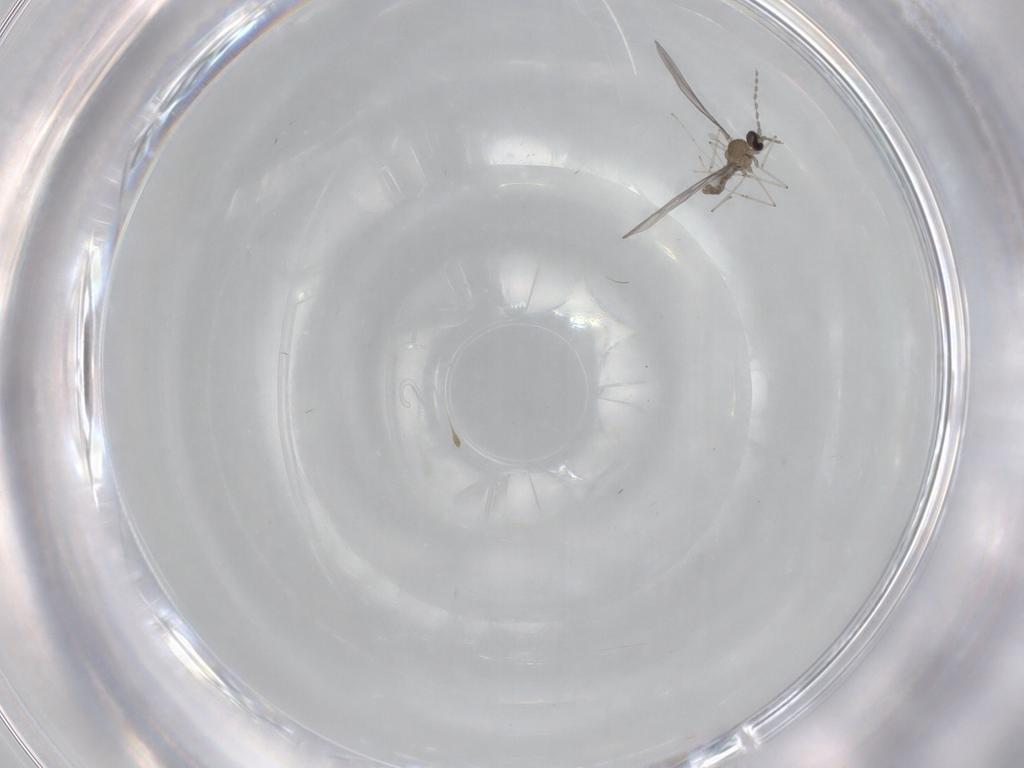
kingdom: Animalia
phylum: Arthropoda
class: Insecta
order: Diptera
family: Cecidomyiidae
